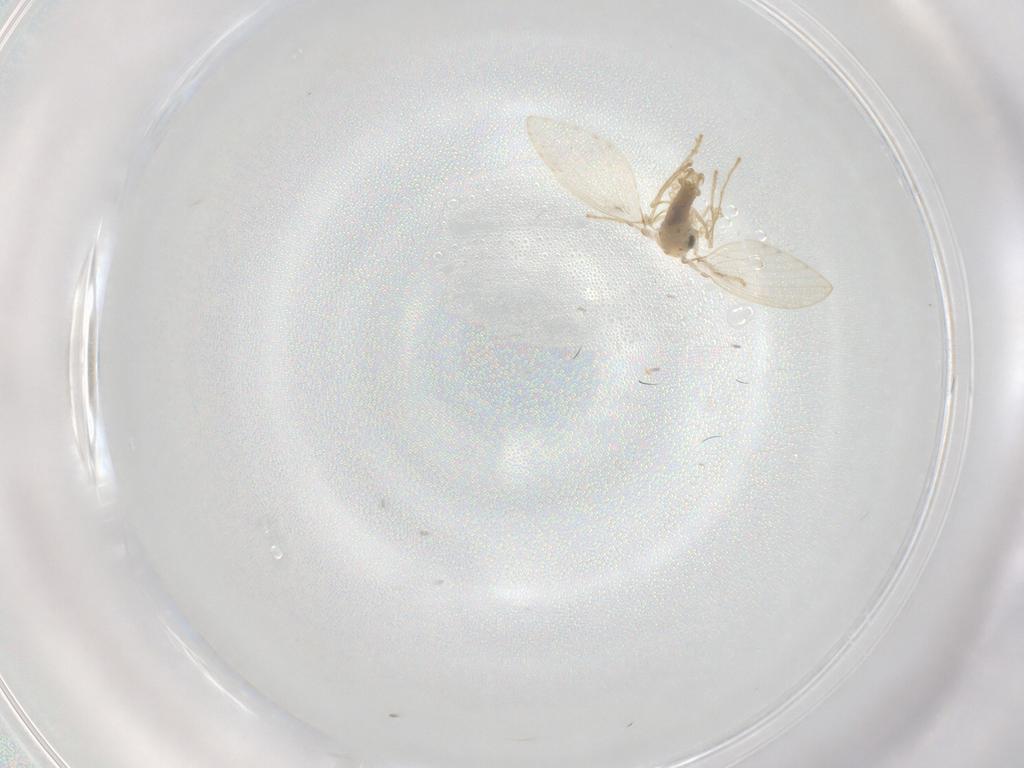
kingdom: Animalia
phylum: Arthropoda
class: Insecta
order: Diptera
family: Psychodidae
